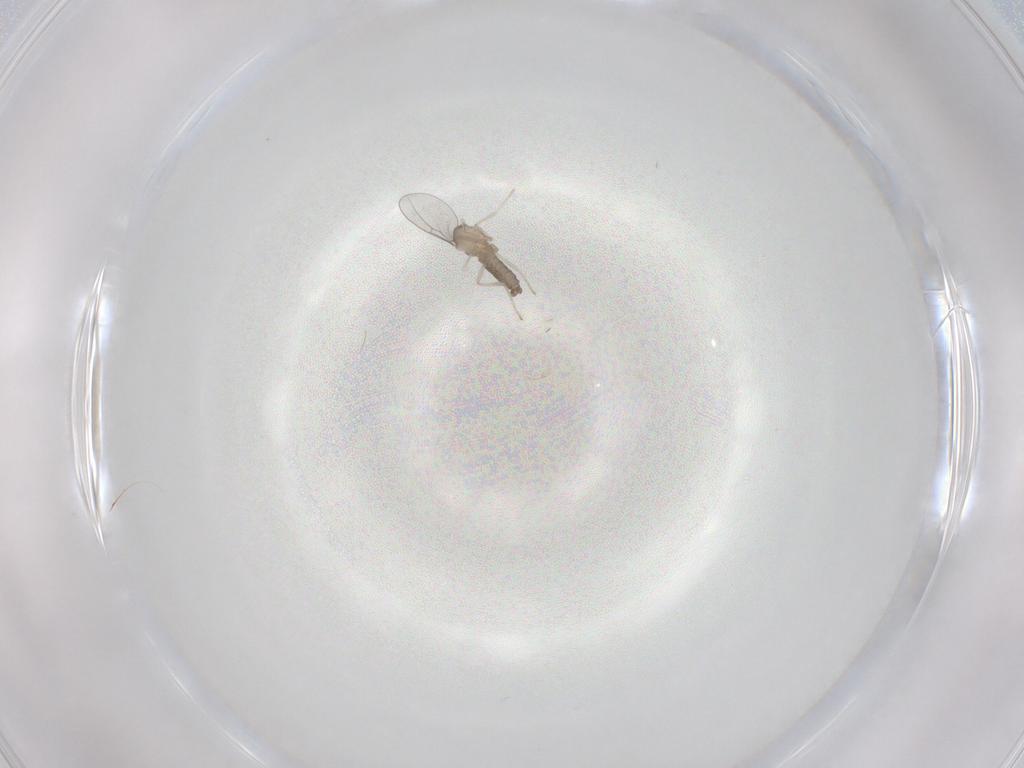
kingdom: Animalia
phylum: Arthropoda
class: Insecta
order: Diptera
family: Cecidomyiidae
